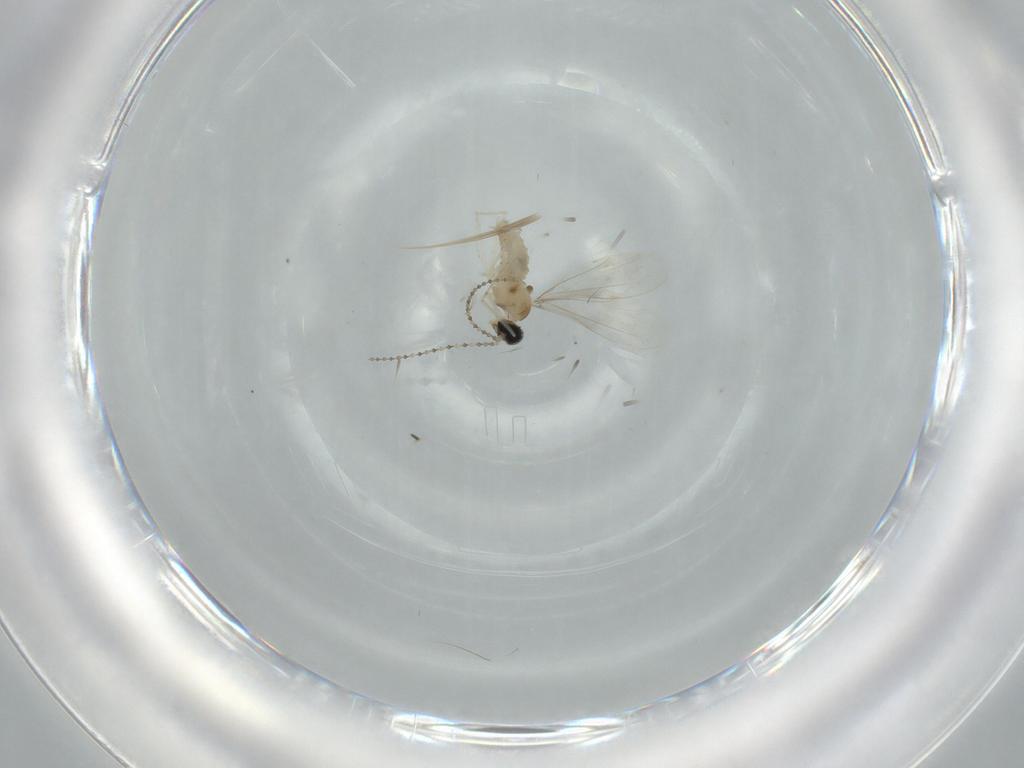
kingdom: Animalia
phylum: Arthropoda
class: Insecta
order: Diptera
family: Cecidomyiidae
